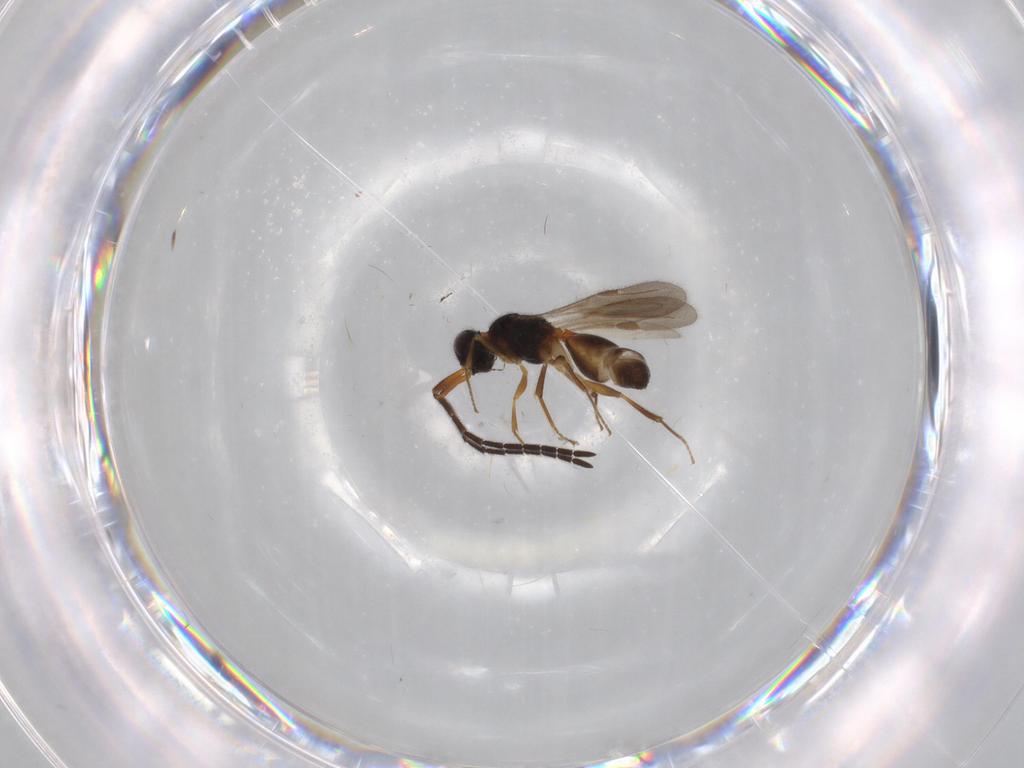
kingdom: Animalia
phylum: Arthropoda
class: Insecta
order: Hymenoptera
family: Megaspilidae
